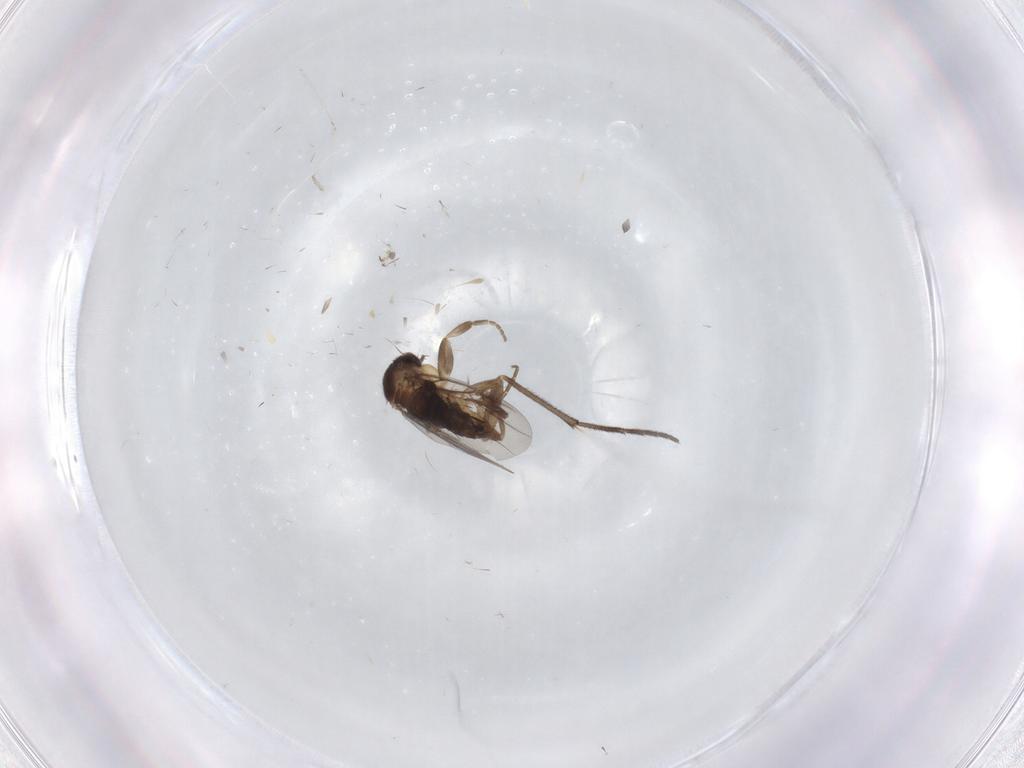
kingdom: Animalia
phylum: Arthropoda
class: Insecta
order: Diptera
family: Sciaridae
